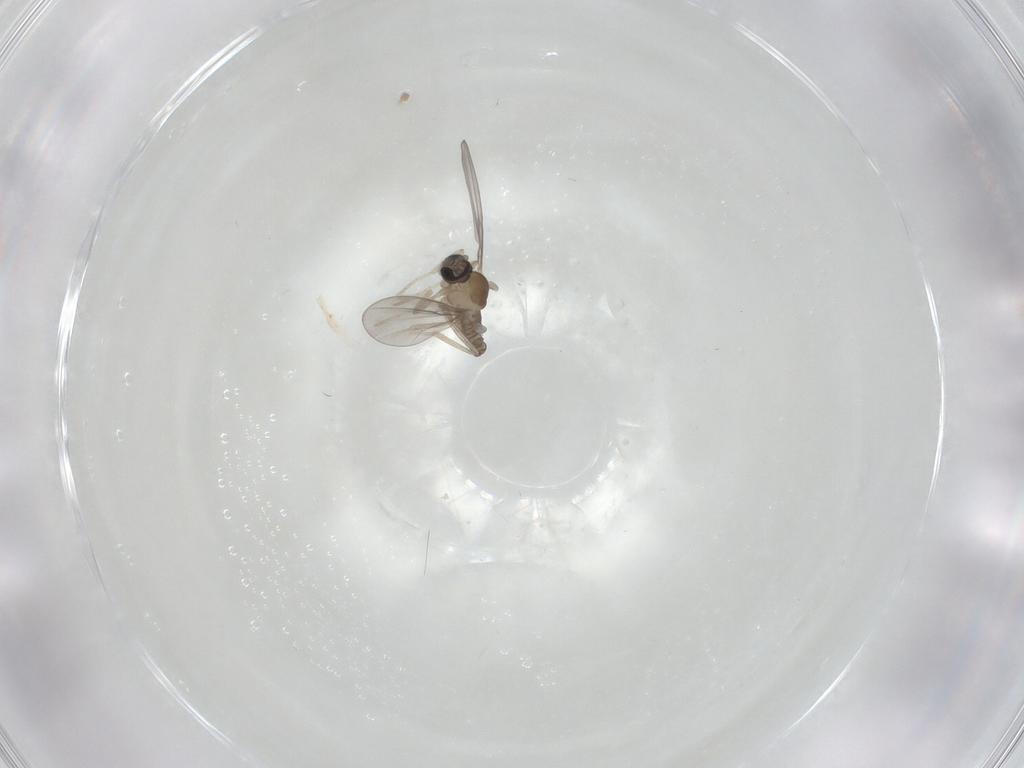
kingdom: Animalia
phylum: Arthropoda
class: Insecta
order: Diptera
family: Cecidomyiidae
